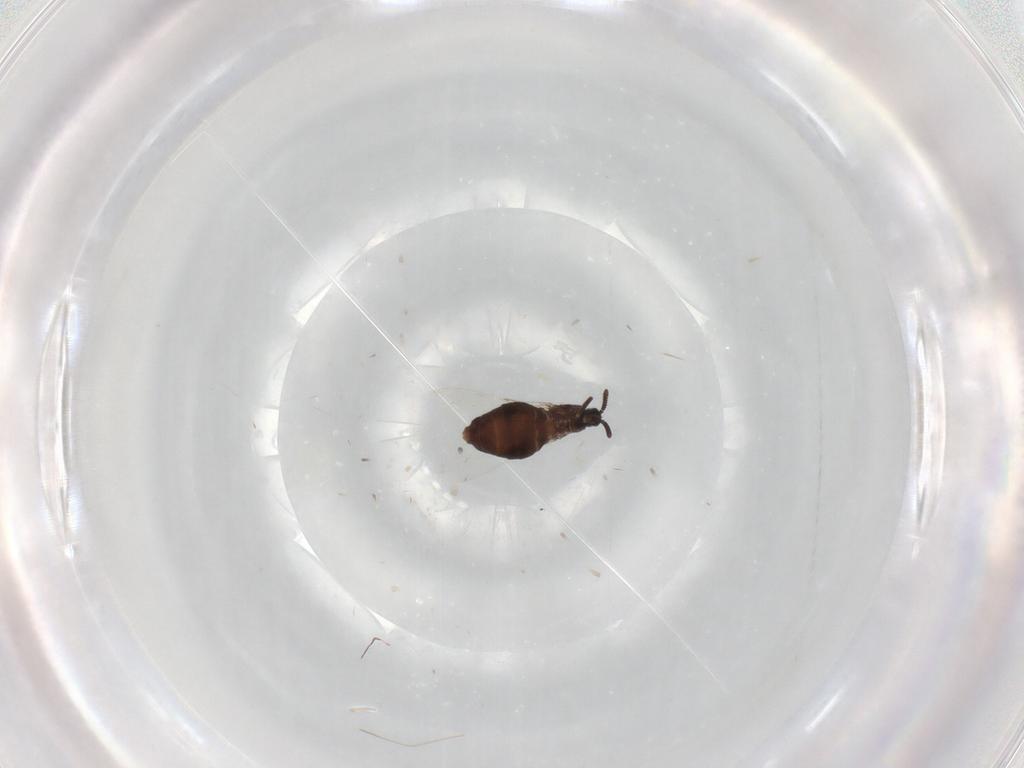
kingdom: Animalia
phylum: Arthropoda
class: Insecta
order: Diptera
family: Scatopsidae
